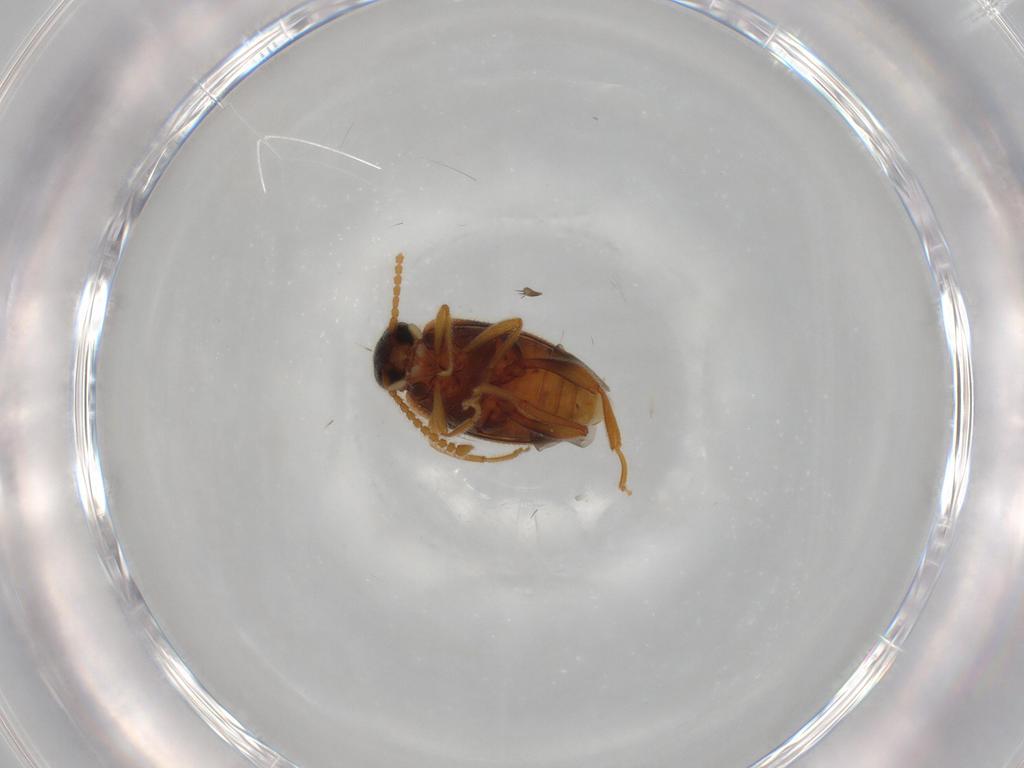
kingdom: Animalia
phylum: Arthropoda
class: Insecta
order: Coleoptera
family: Aderidae
